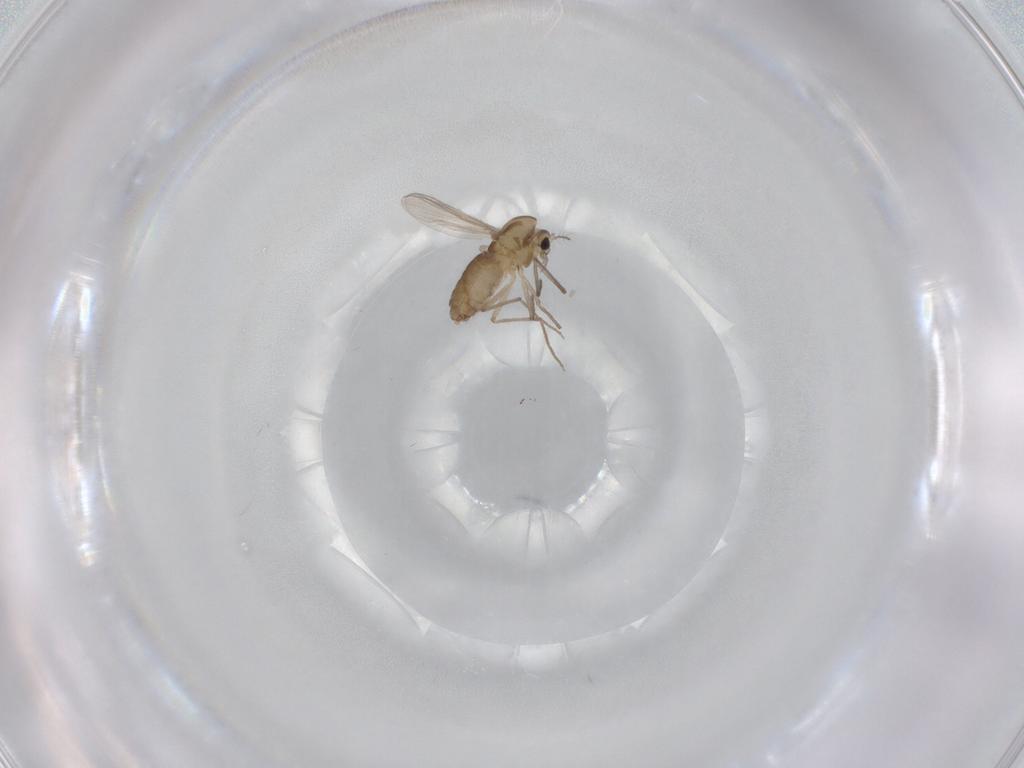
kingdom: Animalia
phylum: Arthropoda
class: Insecta
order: Diptera
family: Chironomidae
